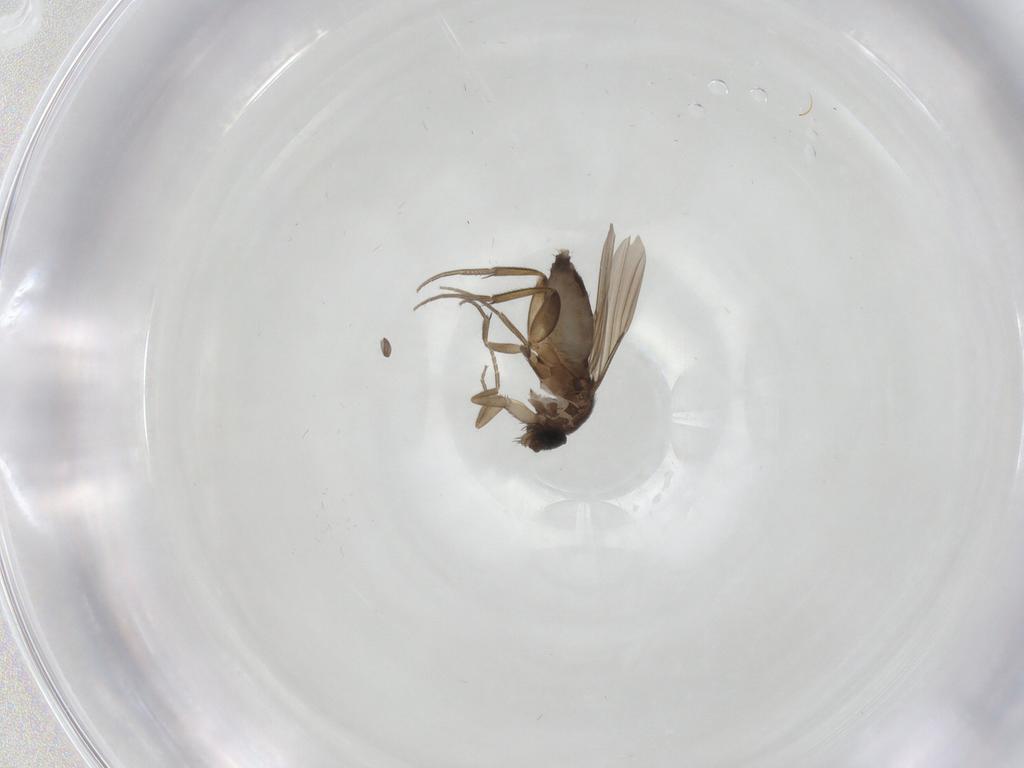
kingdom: Animalia
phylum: Arthropoda
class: Insecta
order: Diptera
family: Phoridae
